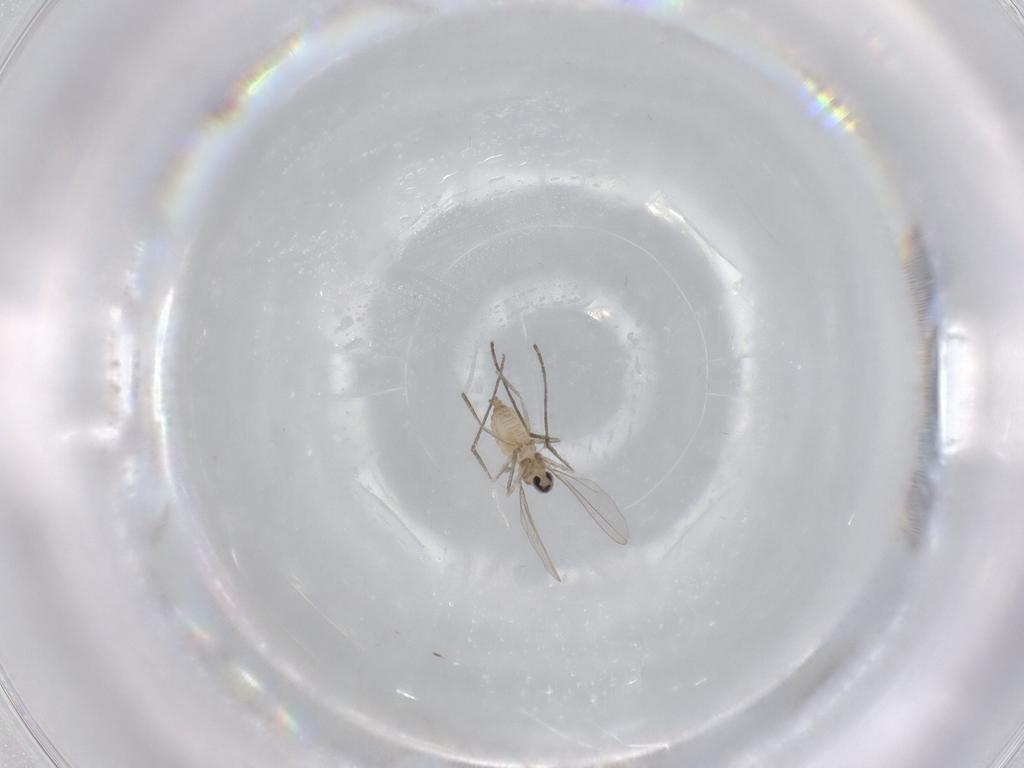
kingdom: Animalia
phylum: Arthropoda
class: Insecta
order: Diptera
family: Cecidomyiidae
